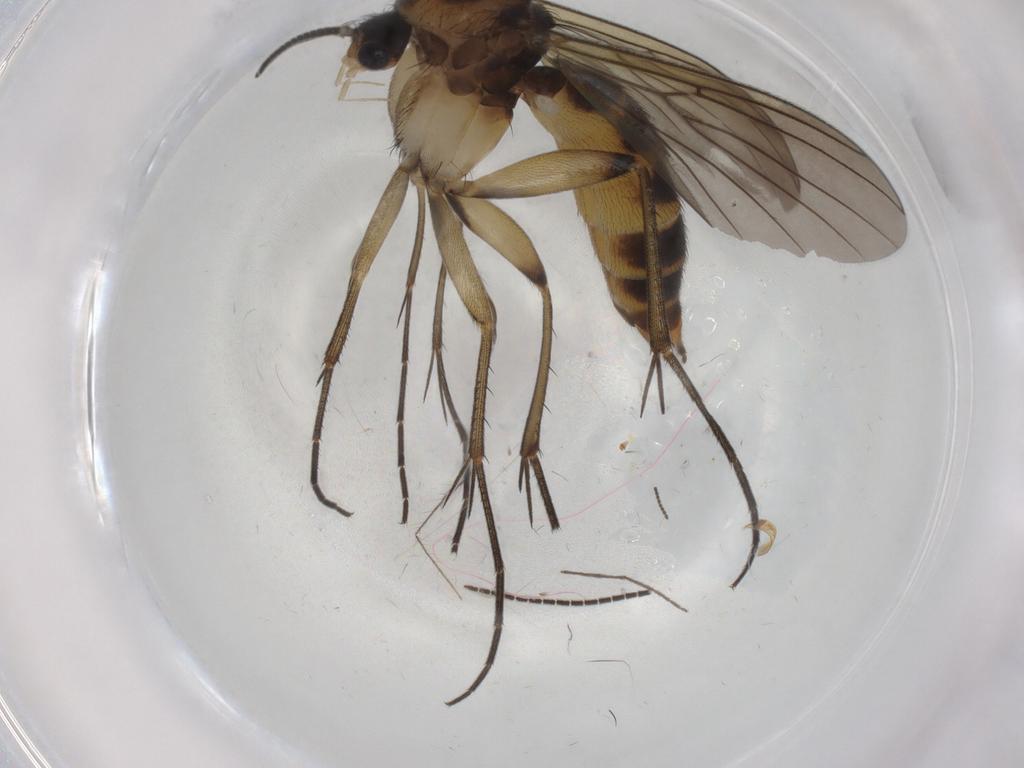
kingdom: Animalia
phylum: Arthropoda
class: Insecta
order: Diptera
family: Mycetophilidae
